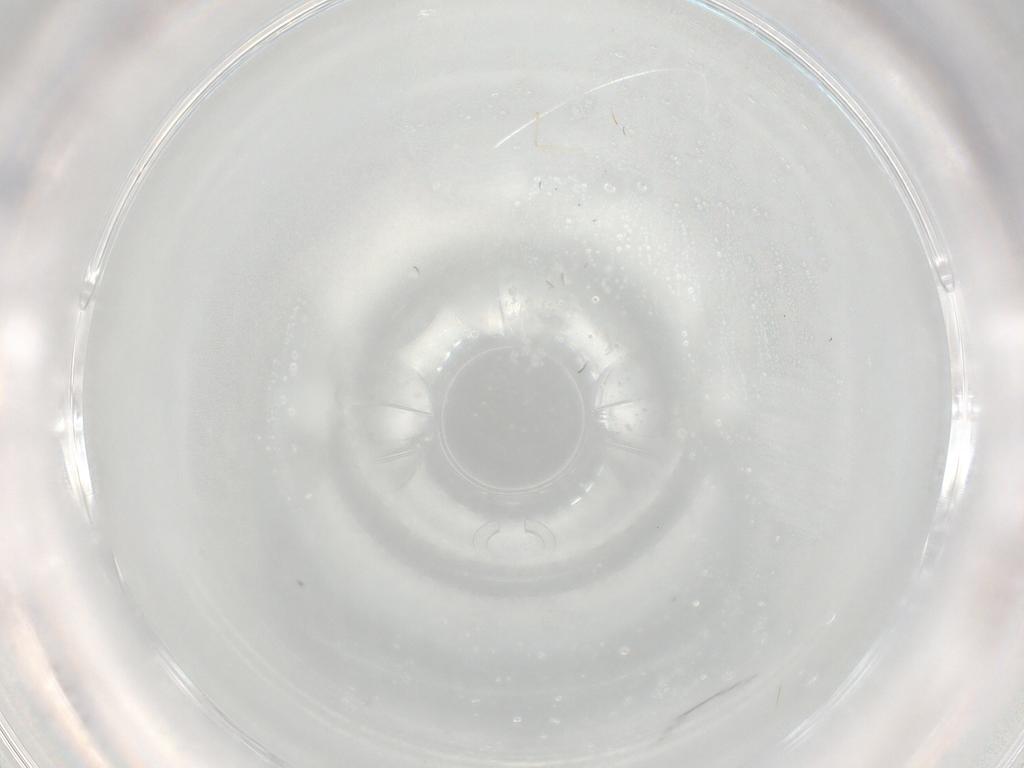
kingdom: Animalia
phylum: Arthropoda
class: Insecta
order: Diptera
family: Cecidomyiidae
